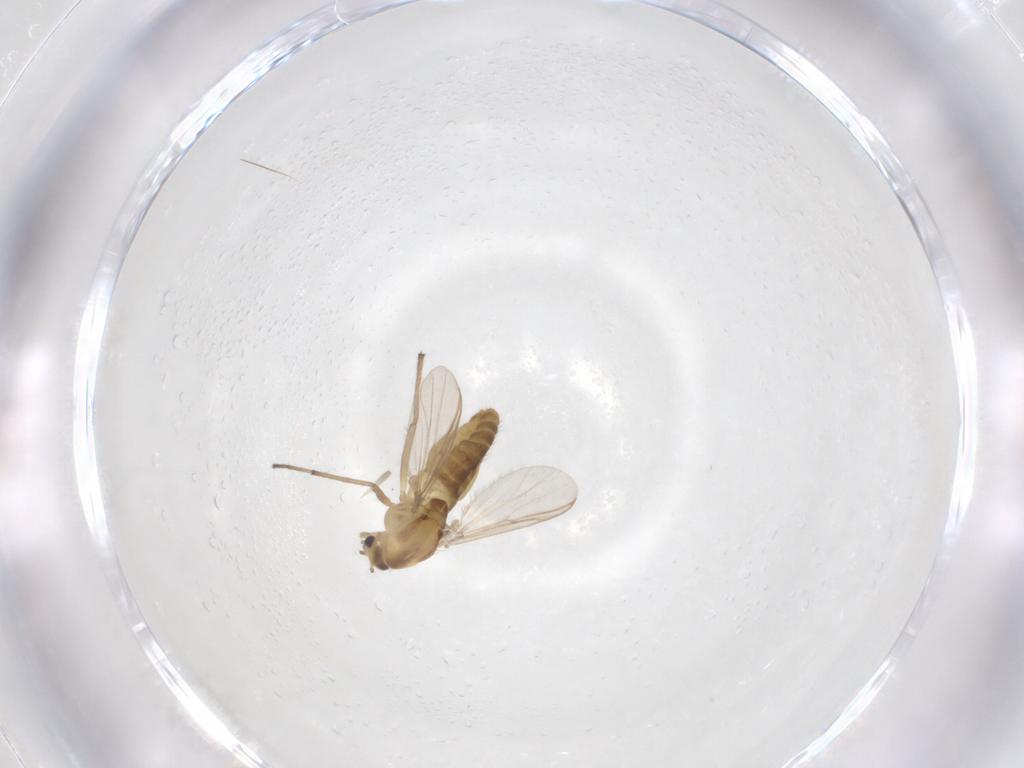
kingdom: Animalia
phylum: Arthropoda
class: Insecta
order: Diptera
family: Chironomidae
